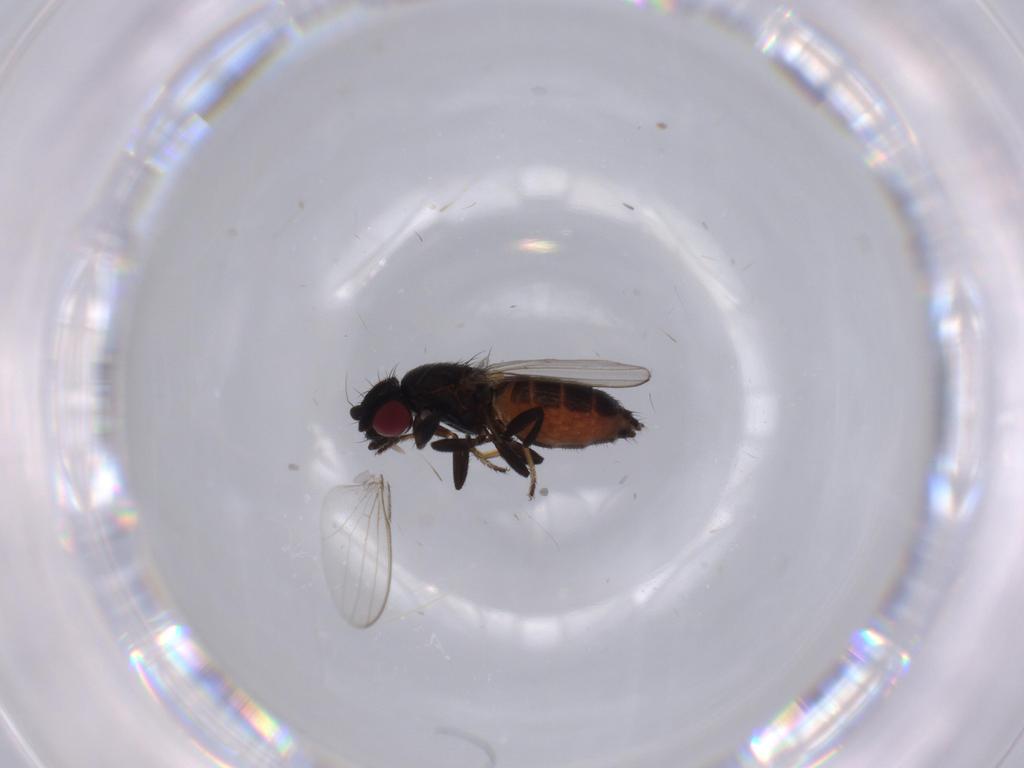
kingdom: Animalia
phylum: Arthropoda
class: Insecta
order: Diptera
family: Milichiidae
